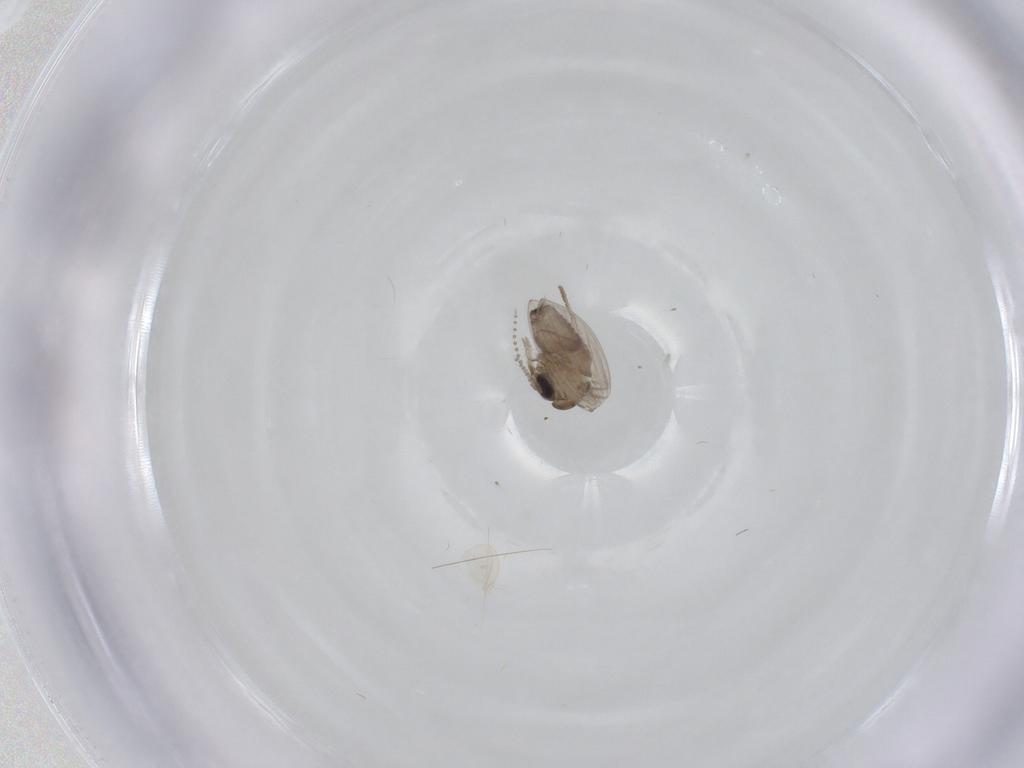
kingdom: Animalia
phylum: Arthropoda
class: Insecta
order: Diptera
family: Psychodidae
